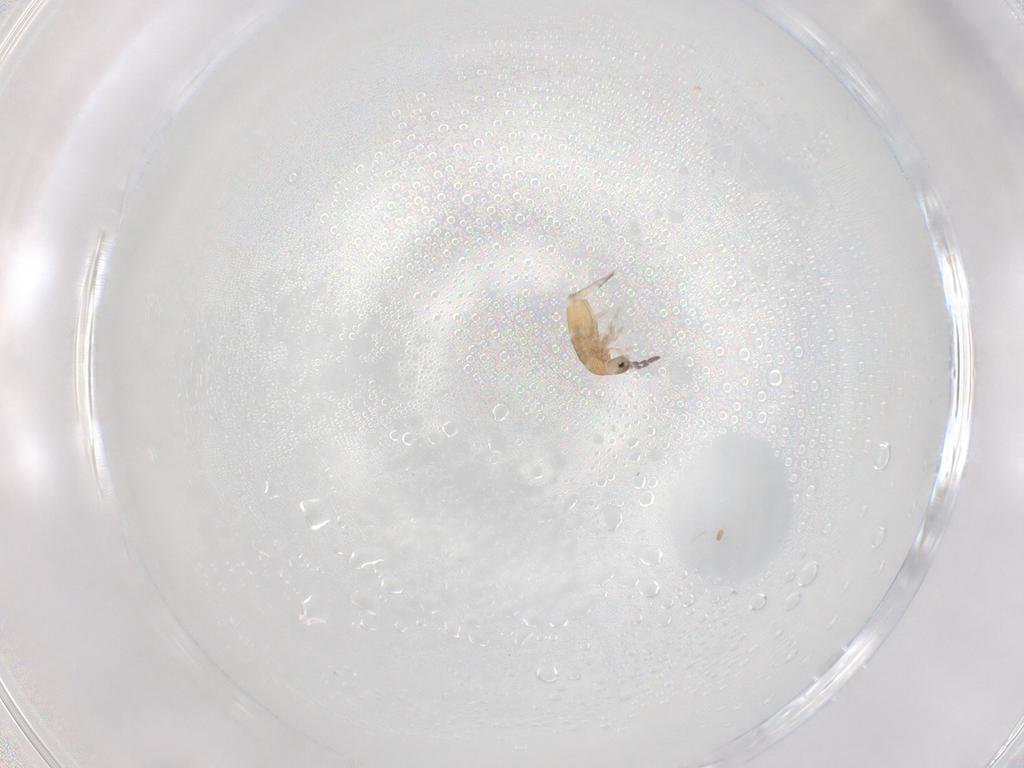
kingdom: Animalia
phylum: Arthropoda
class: Collembola
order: Entomobryomorpha
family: Entomobryidae
